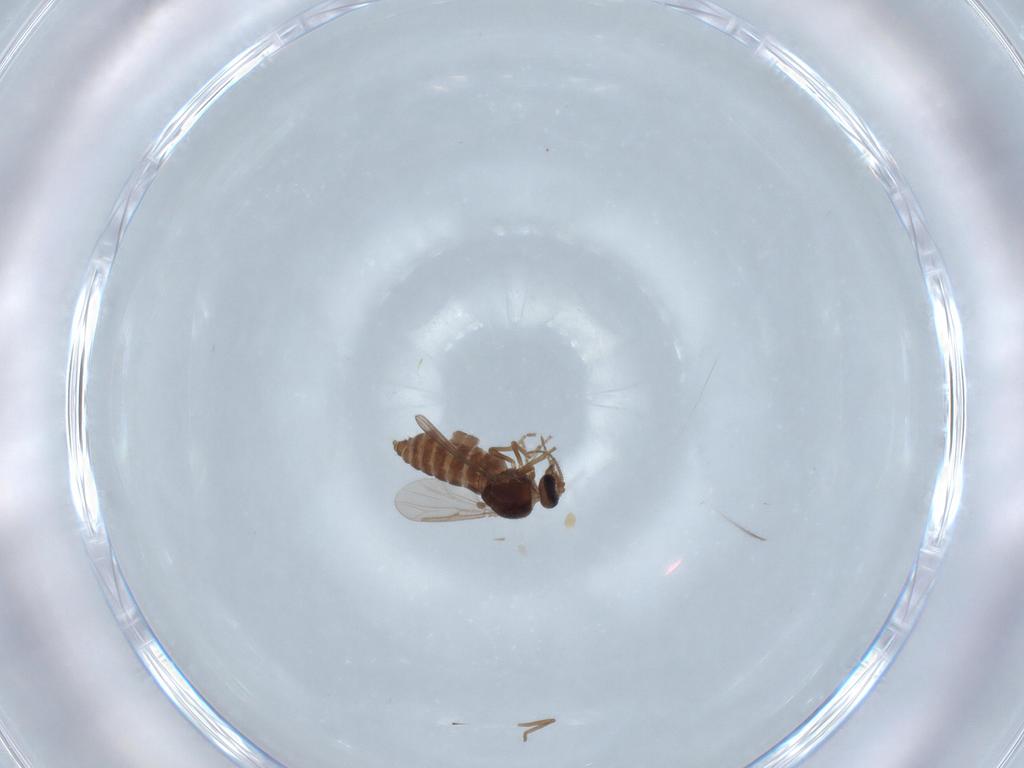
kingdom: Animalia
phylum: Arthropoda
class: Insecta
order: Diptera
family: Ceratopogonidae
